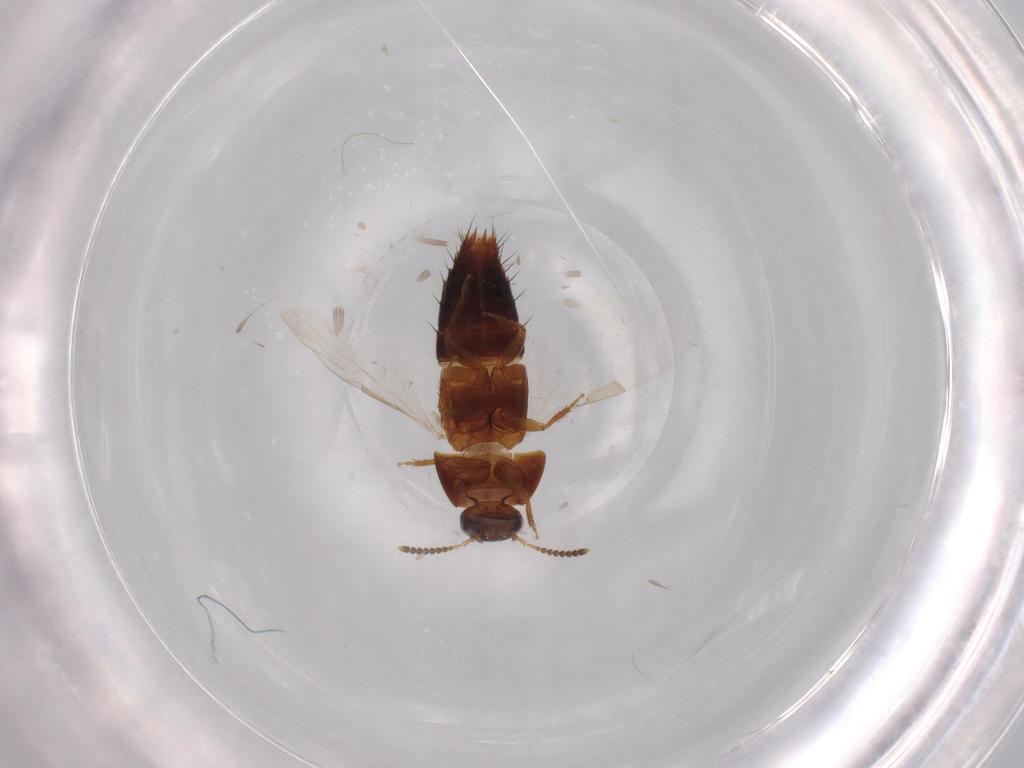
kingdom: Animalia
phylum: Arthropoda
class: Insecta
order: Coleoptera
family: Staphylinidae
